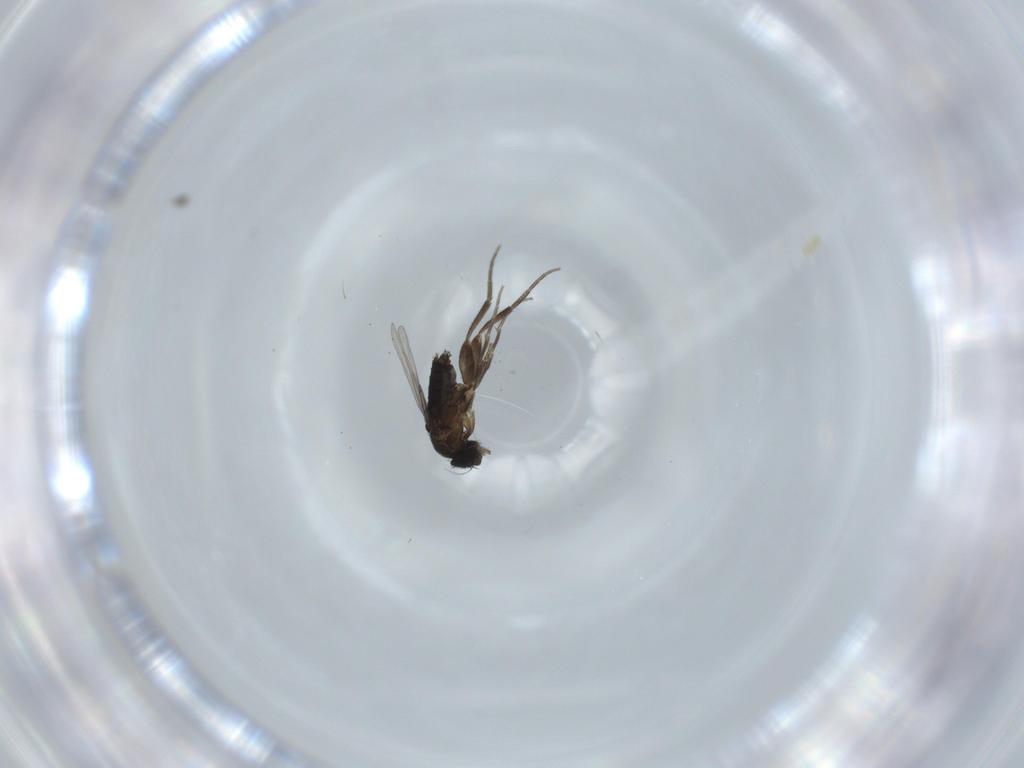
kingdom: Animalia
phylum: Arthropoda
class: Insecta
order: Diptera
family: Phoridae
